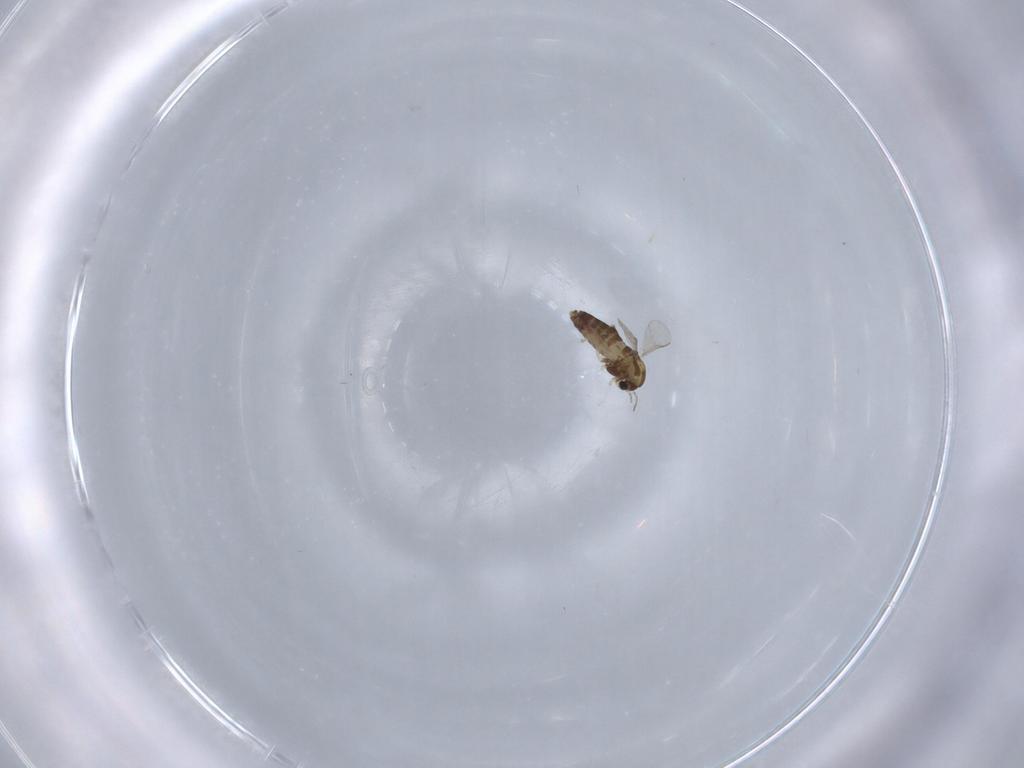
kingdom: Animalia
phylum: Arthropoda
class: Insecta
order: Diptera
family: Chironomidae
